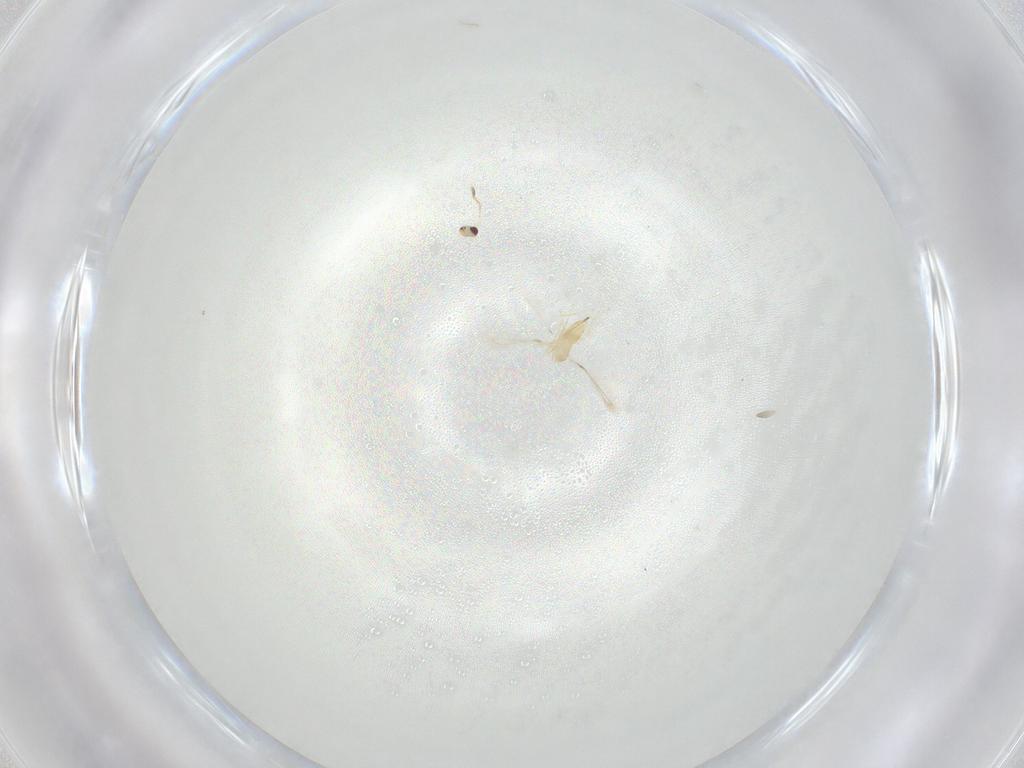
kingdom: Animalia
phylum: Arthropoda
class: Insecta
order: Hymenoptera
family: Mymaridae
